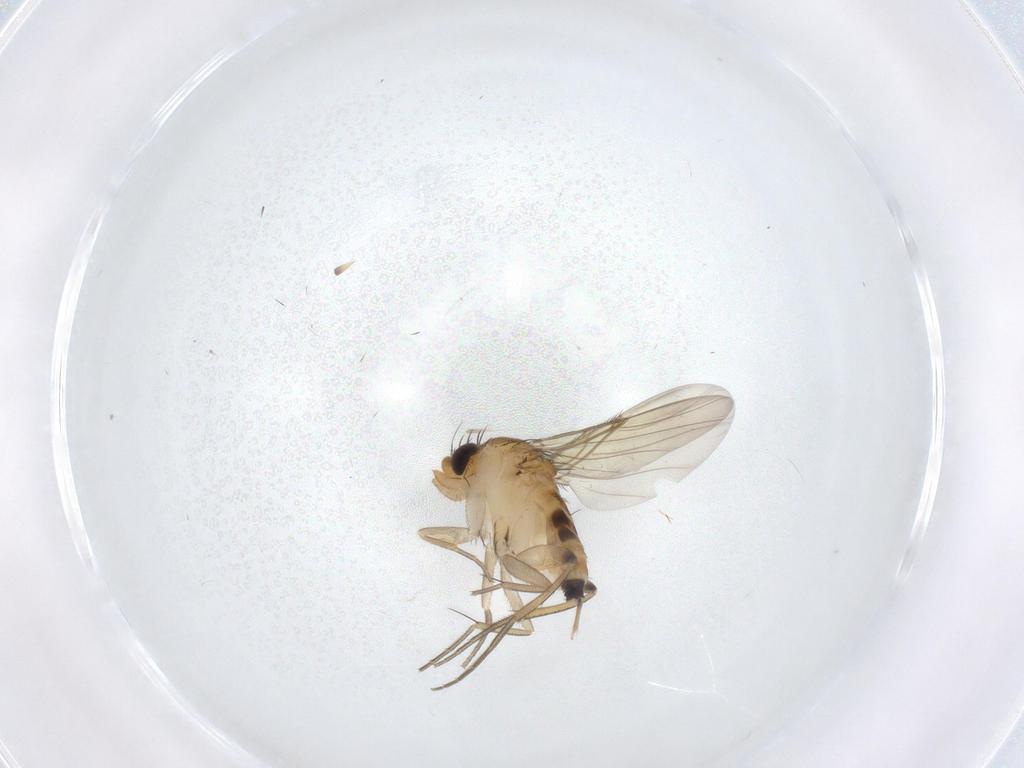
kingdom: Animalia
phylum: Arthropoda
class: Insecta
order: Diptera
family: Phoridae
